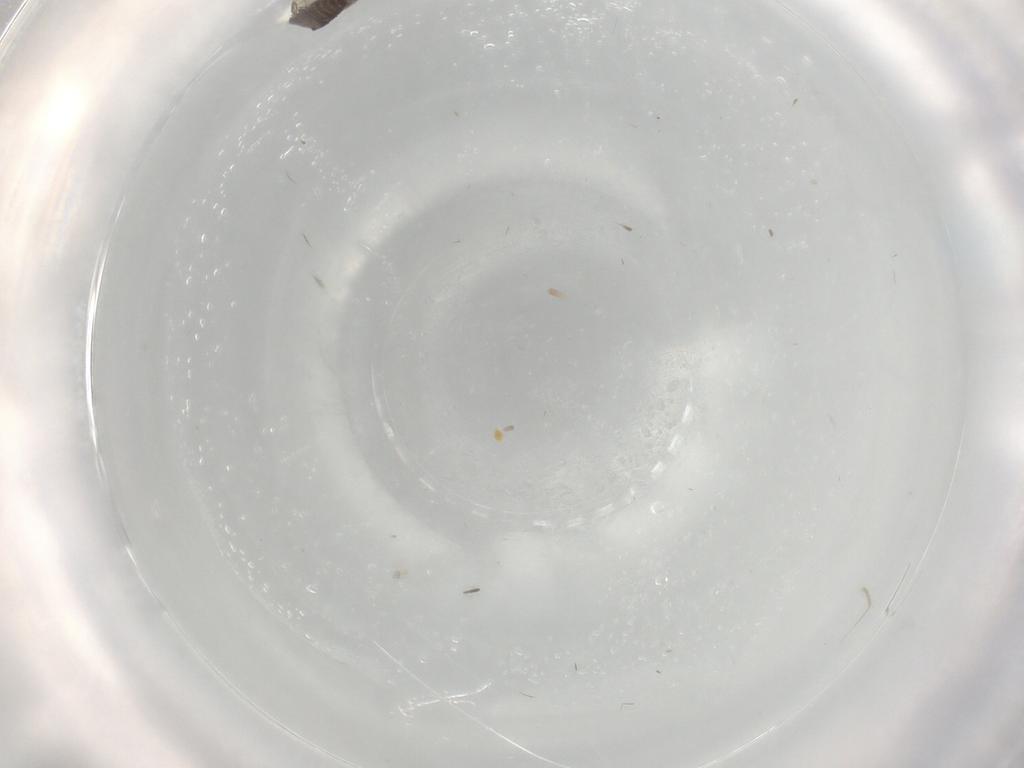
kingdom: Animalia
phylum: Arthropoda
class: Insecta
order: Diptera
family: Phoridae
